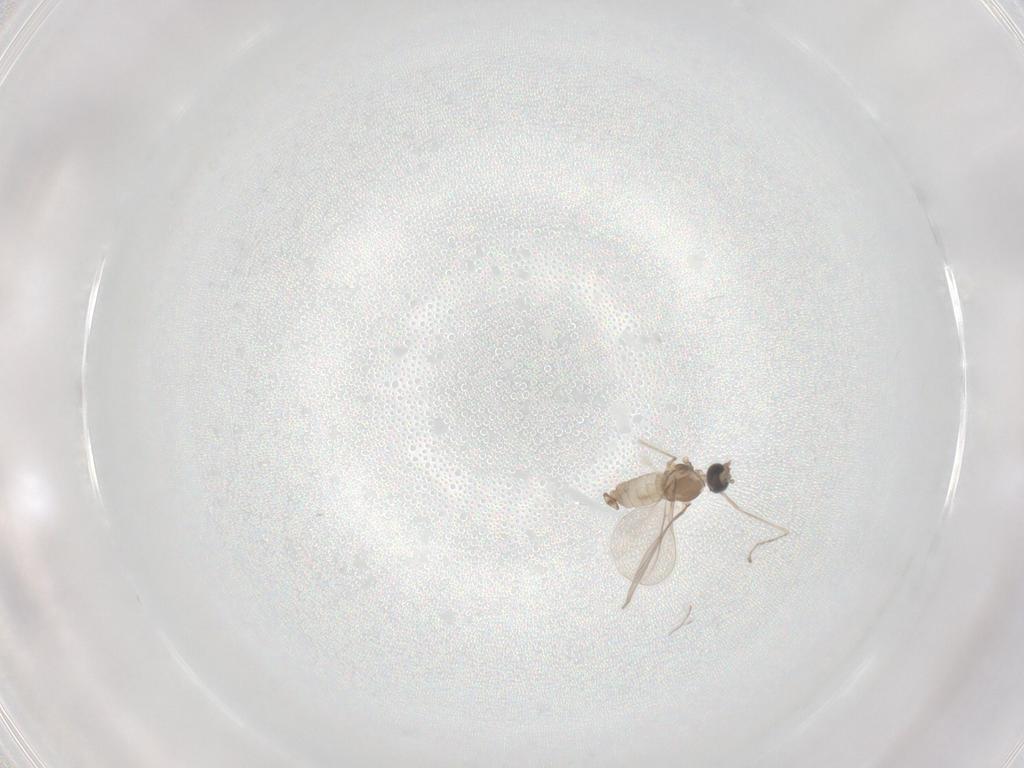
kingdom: Animalia
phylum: Arthropoda
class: Insecta
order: Diptera
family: Cecidomyiidae
